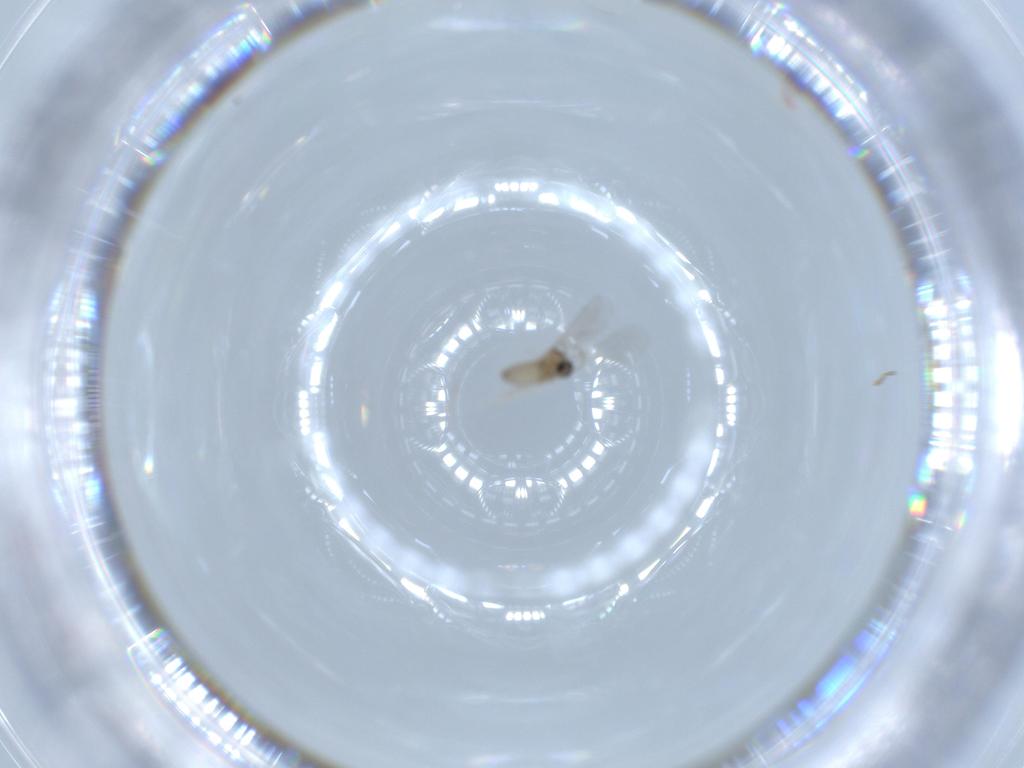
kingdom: Animalia
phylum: Arthropoda
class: Insecta
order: Diptera
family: Cecidomyiidae
